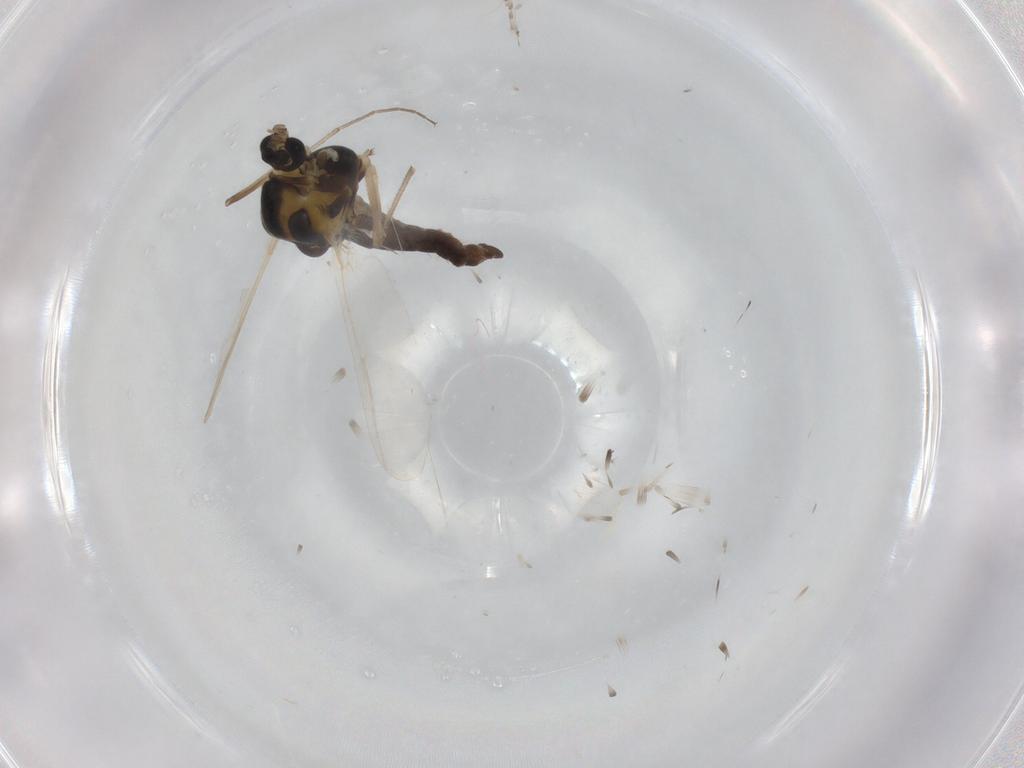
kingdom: Animalia
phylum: Arthropoda
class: Insecta
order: Diptera
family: Chironomidae
